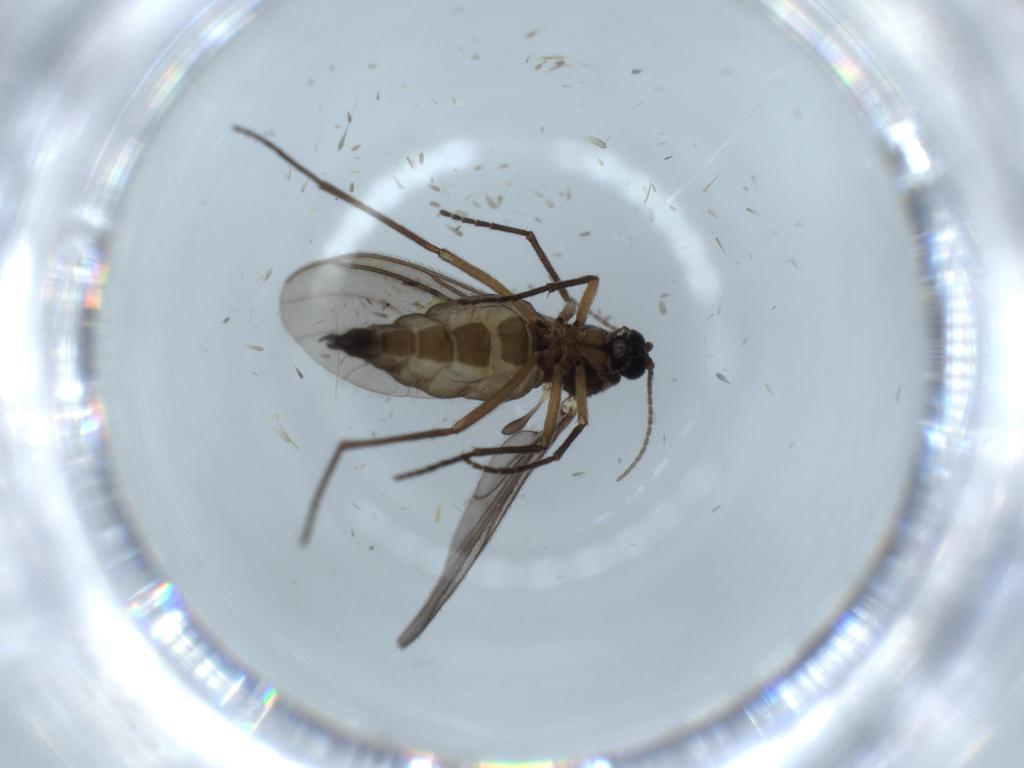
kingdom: Animalia
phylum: Arthropoda
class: Insecta
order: Diptera
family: Sciaridae
